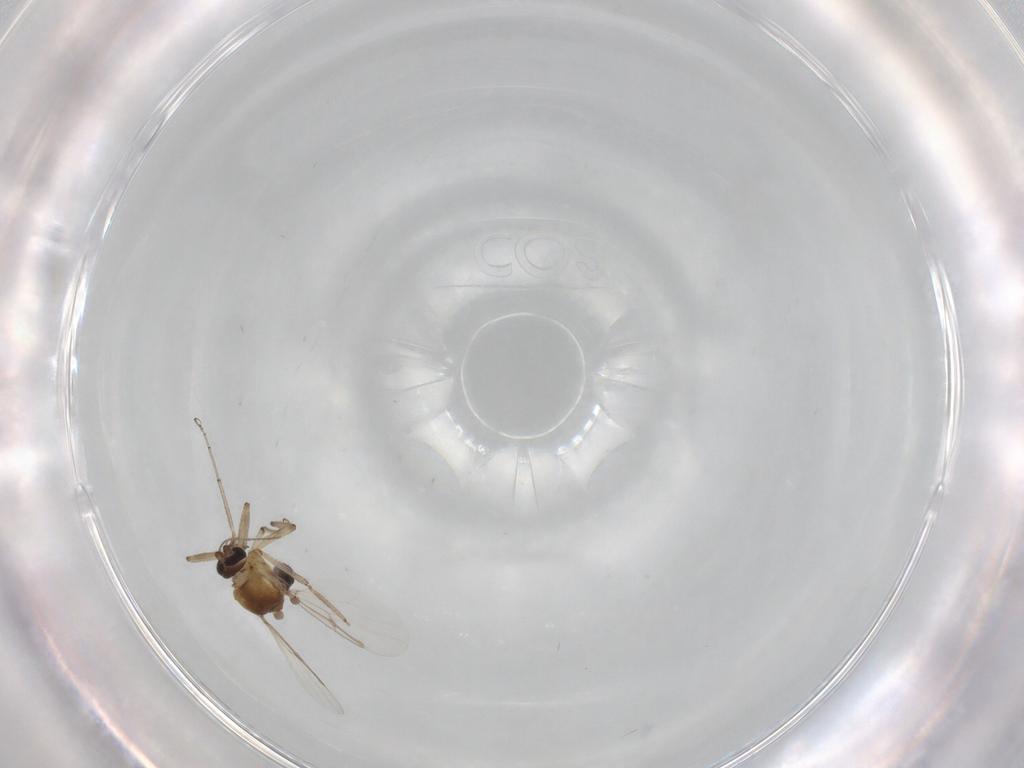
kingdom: Animalia
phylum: Arthropoda
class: Insecta
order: Diptera
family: Ceratopogonidae
